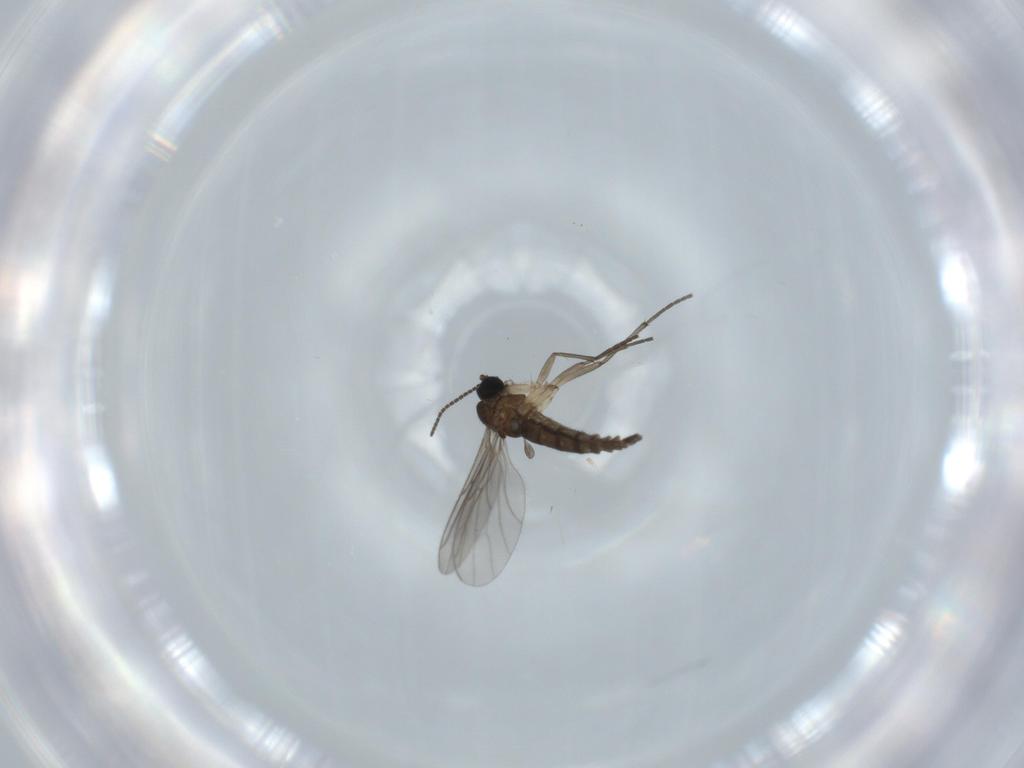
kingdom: Animalia
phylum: Arthropoda
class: Insecta
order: Diptera
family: Sciaridae
